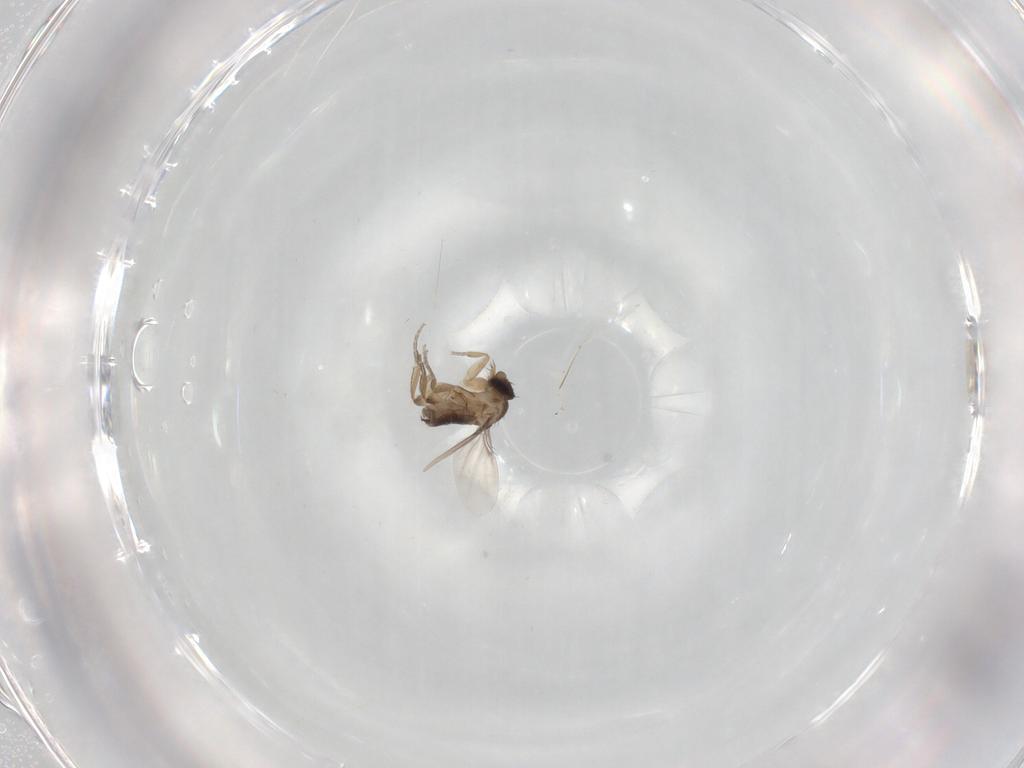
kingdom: Animalia
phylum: Arthropoda
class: Insecta
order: Diptera
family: Phoridae
